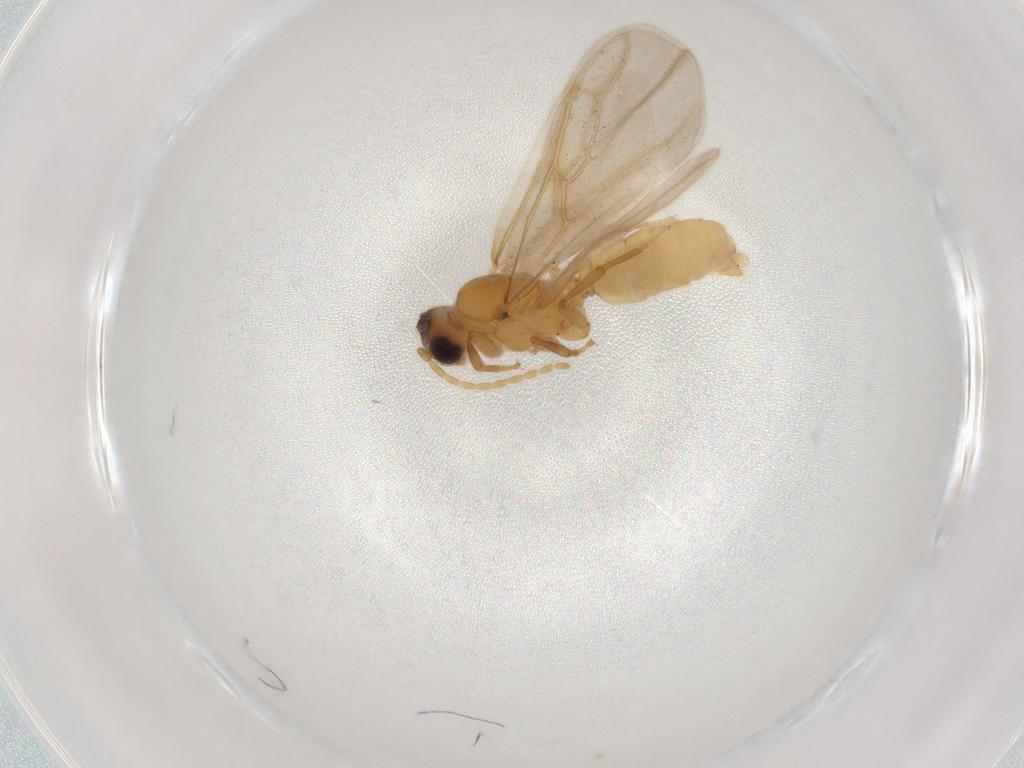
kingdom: Animalia
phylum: Arthropoda
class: Insecta
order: Hymenoptera
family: Formicidae
